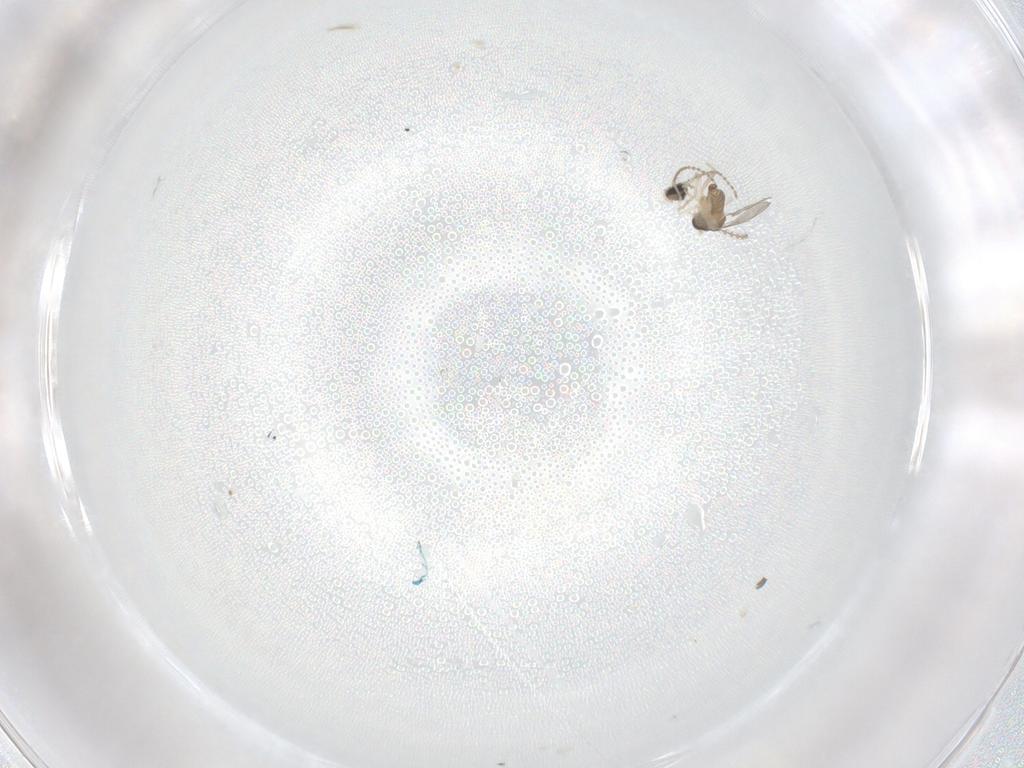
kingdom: Animalia
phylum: Arthropoda
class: Insecta
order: Diptera
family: Cecidomyiidae
